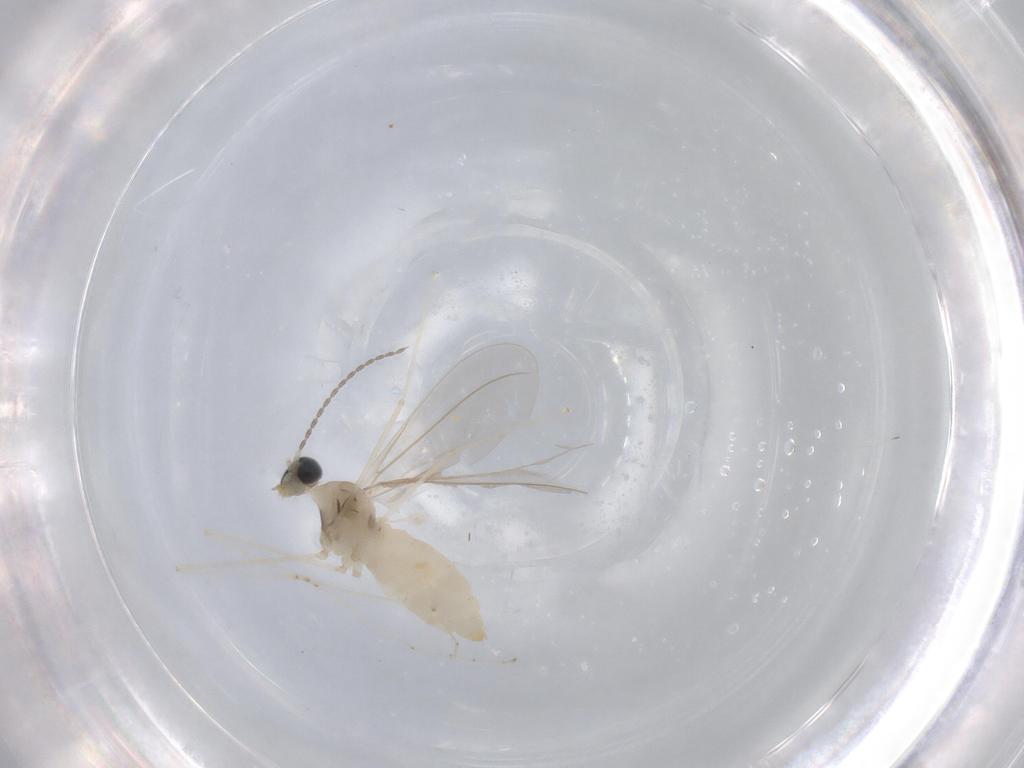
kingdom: Animalia
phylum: Arthropoda
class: Insecta
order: Diptera
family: Cecidomyiidae
